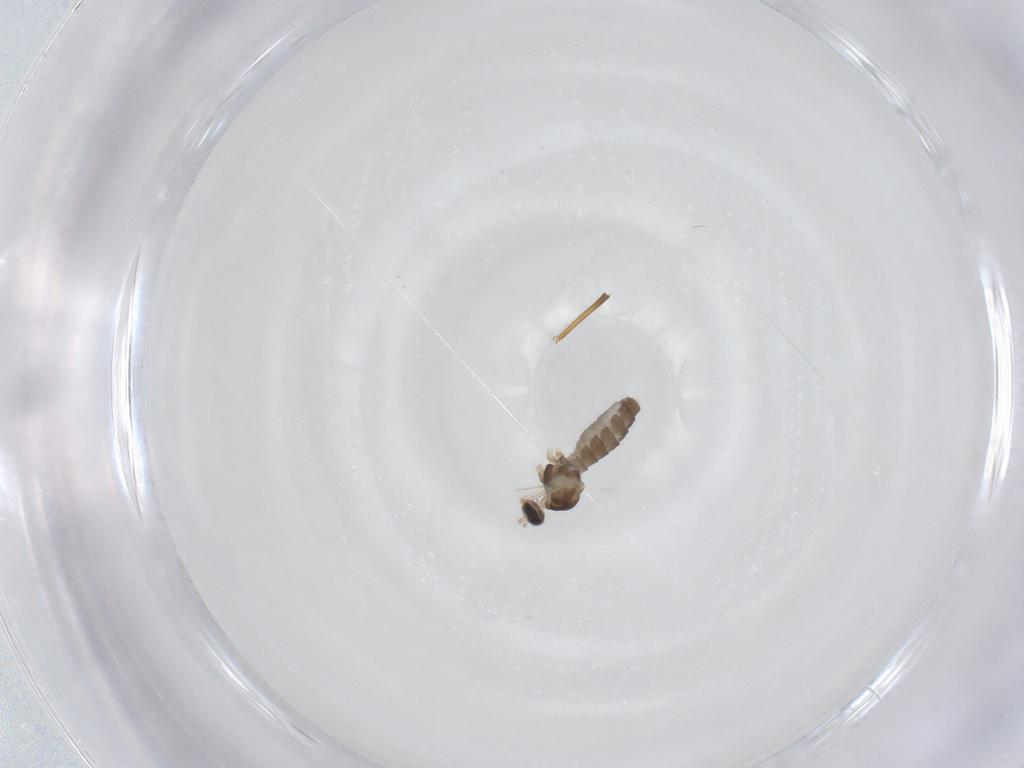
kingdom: Animalia
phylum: Arthropoda
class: Insecta
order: Diptera
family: Cecidomyiidae
